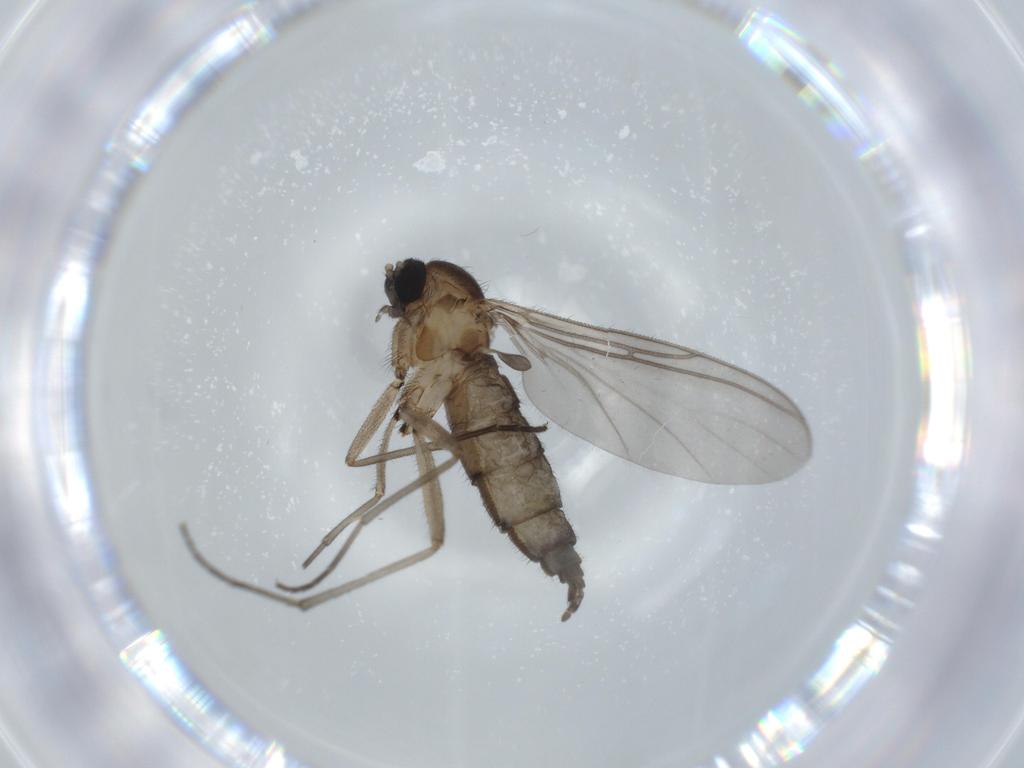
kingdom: Animalia
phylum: Arthropoda
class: Insecta
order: Diptera
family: Sciaridae
